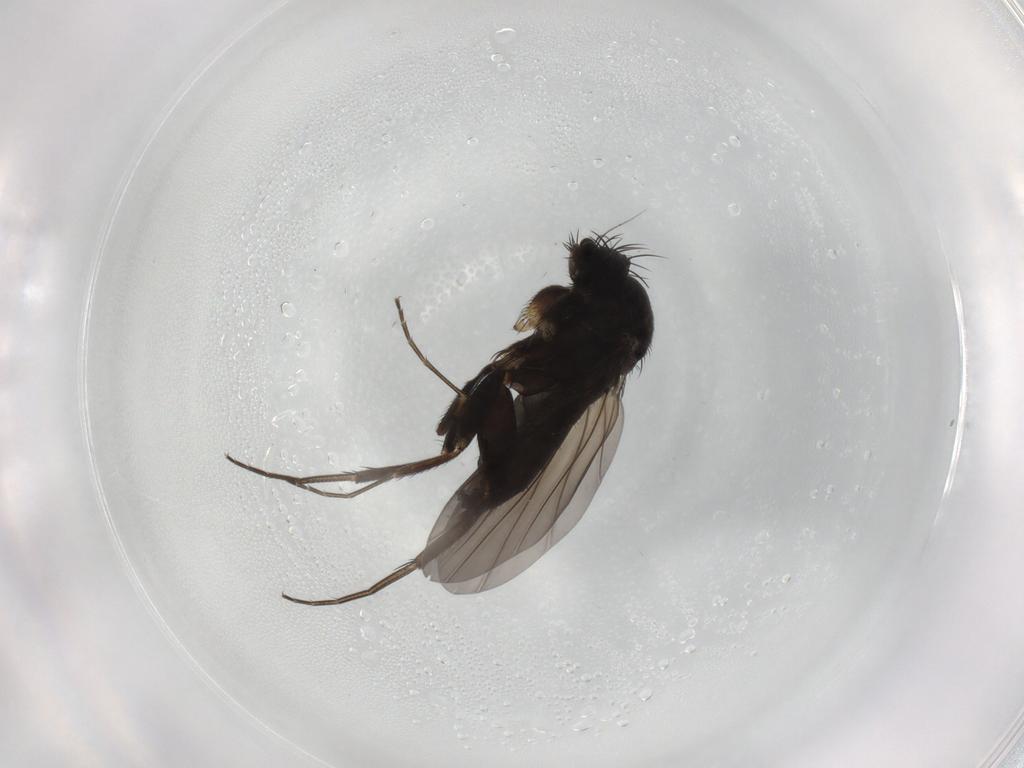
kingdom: Animalia
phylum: Arthropoda
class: Insecta
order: Diptera
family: Phoridae
